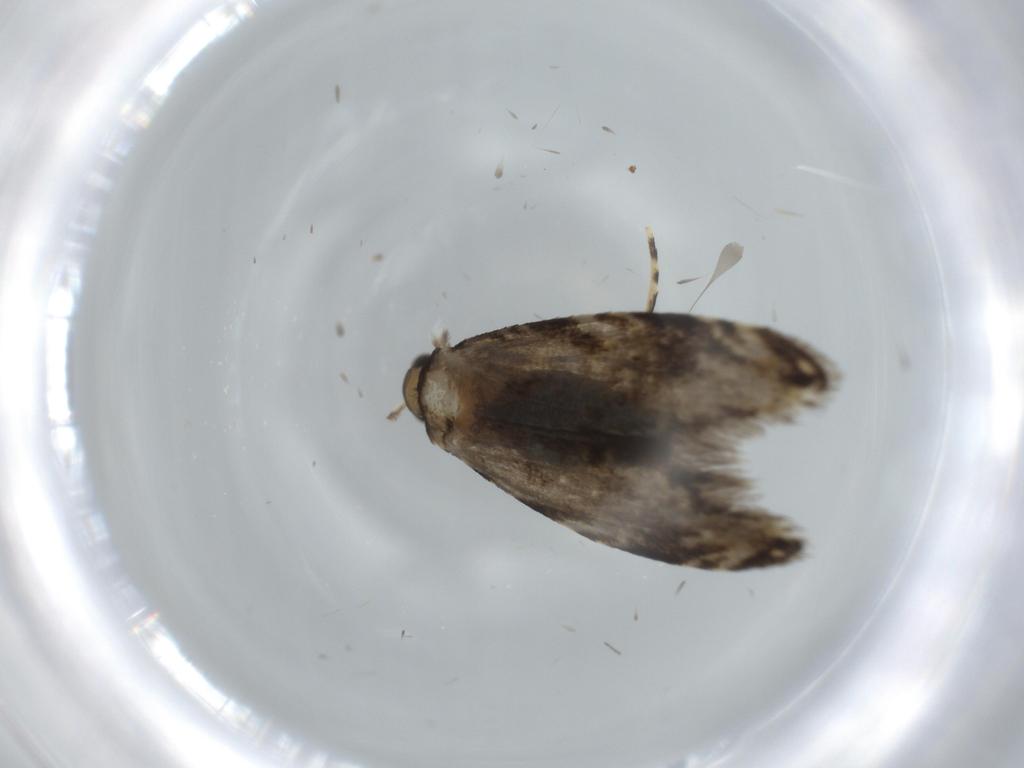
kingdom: Animalia
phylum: Arthropoda
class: Insecta
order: Lepidoptera
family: Tineidae
